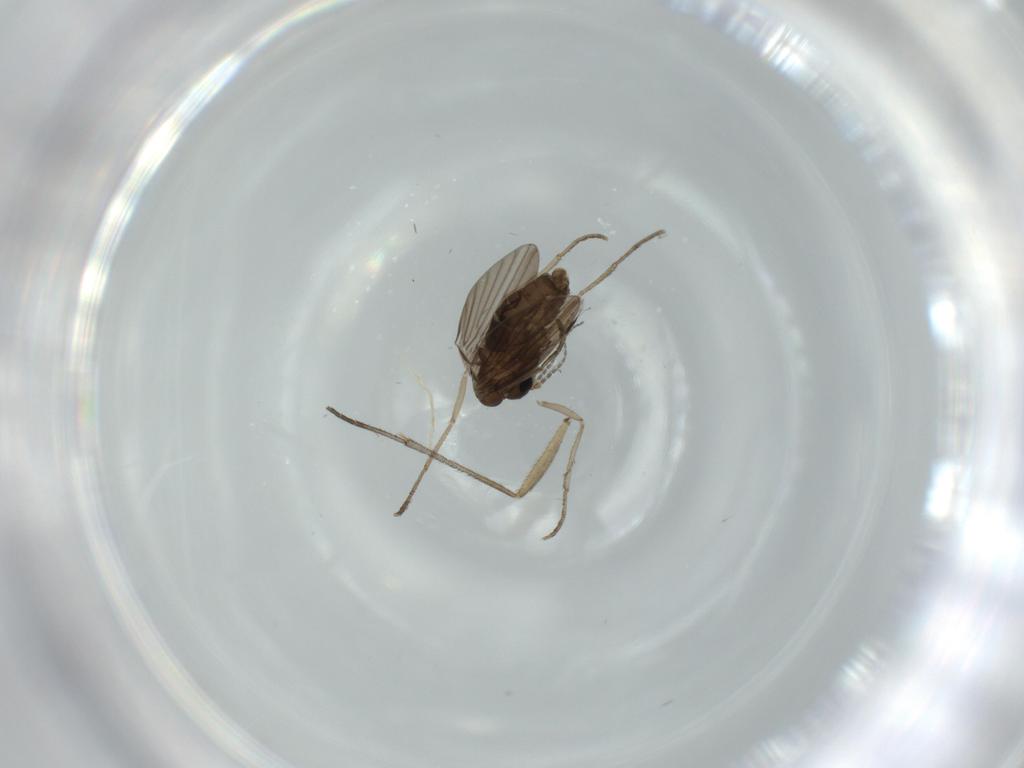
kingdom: Animalia
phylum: Arthropoda
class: Insecta
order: Diptera
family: Sciaridae
